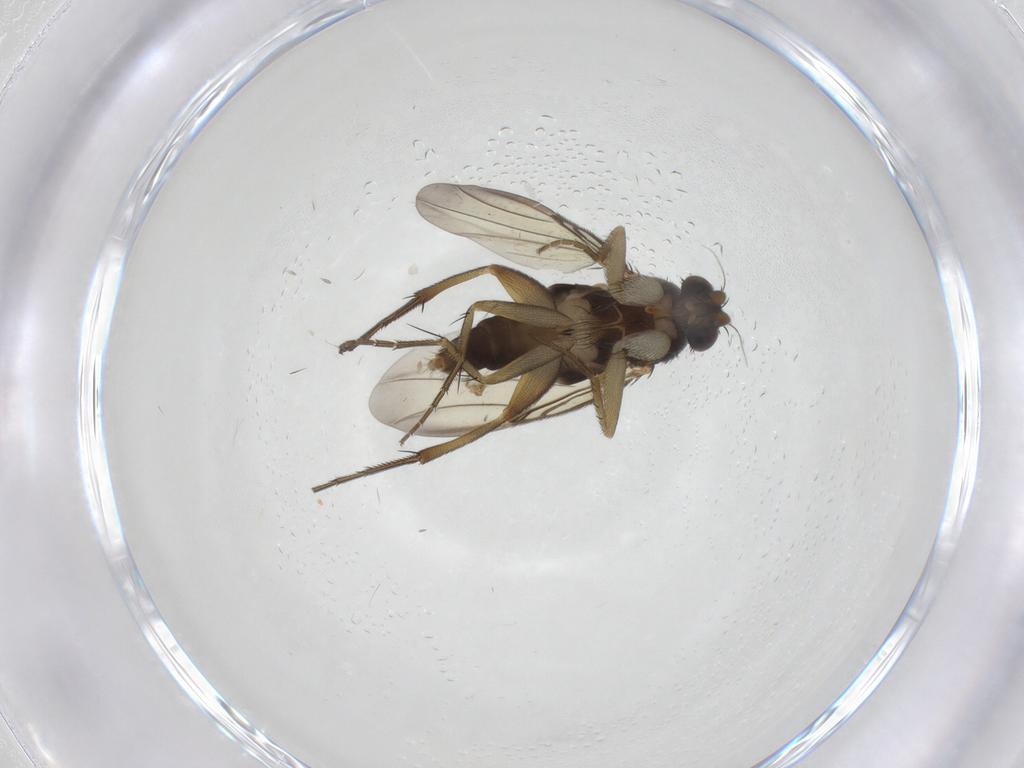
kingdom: Animalia
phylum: Arthropoda
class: Insecta
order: Diptera
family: Phoridae
